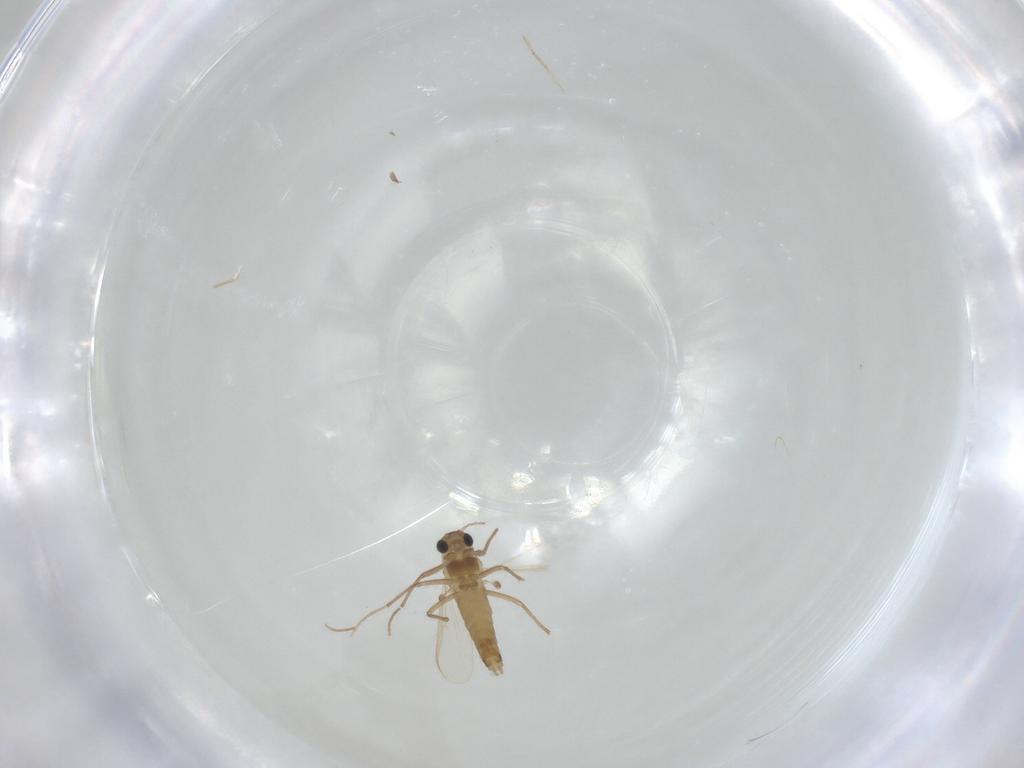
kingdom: Animalia
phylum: Arthropoda
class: Insecta
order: Diptera
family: Chironomidae
